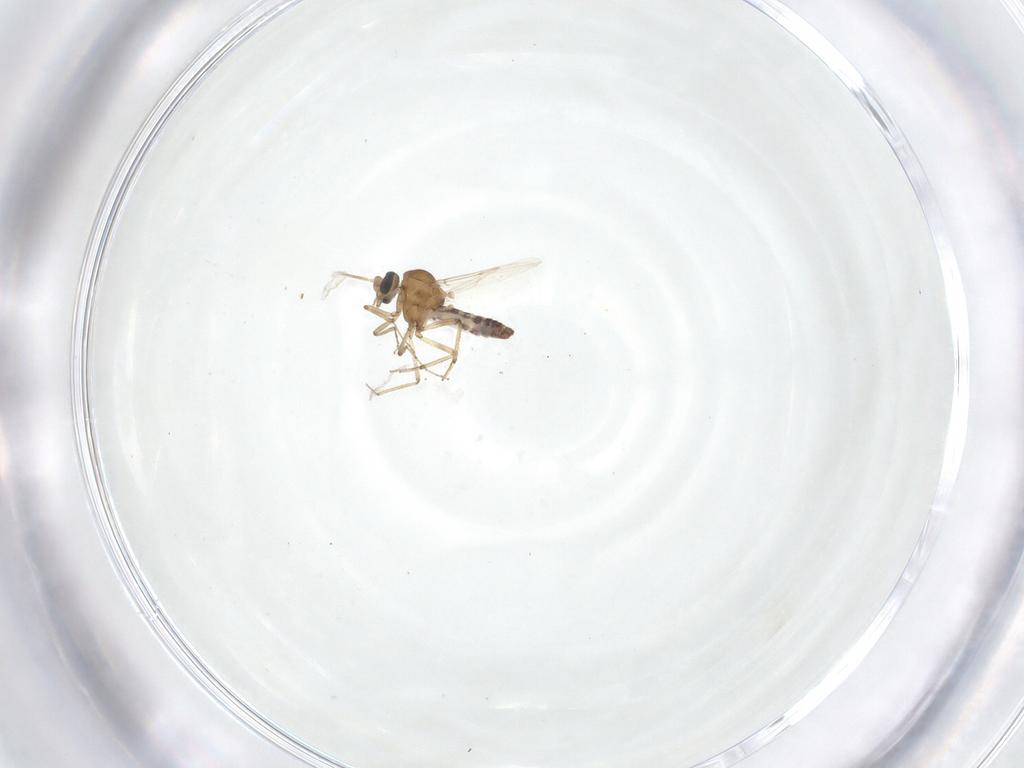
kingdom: Animalia
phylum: Arthropoda
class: Insecta
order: Diptera
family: Ceratopogonidae
